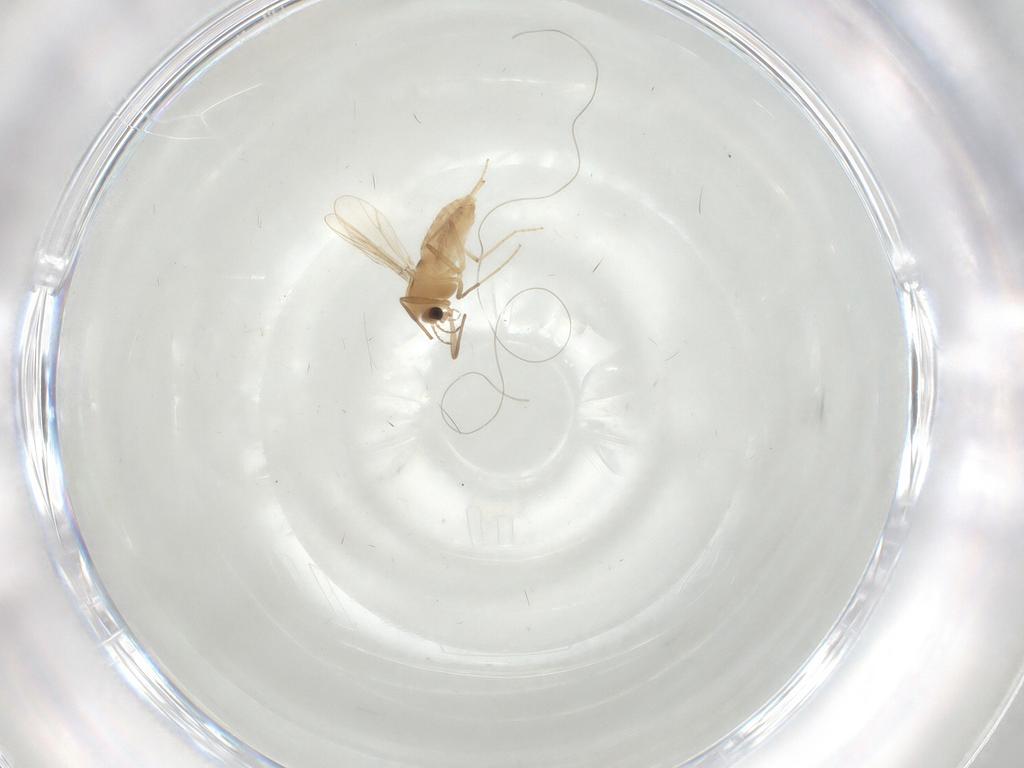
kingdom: Animalia
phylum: Arthropoda
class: Insecta
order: Diptera
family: Chironomidae
